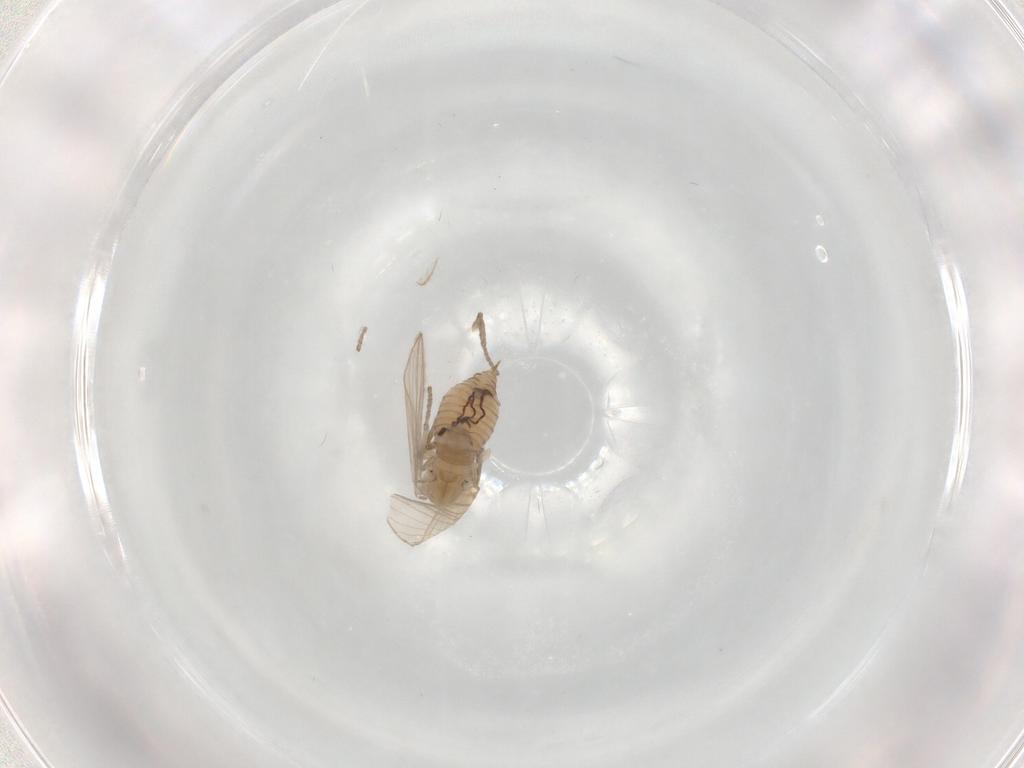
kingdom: Animalia
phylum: Arthropoda
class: Insecta
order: Diptera
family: Psychodidae
